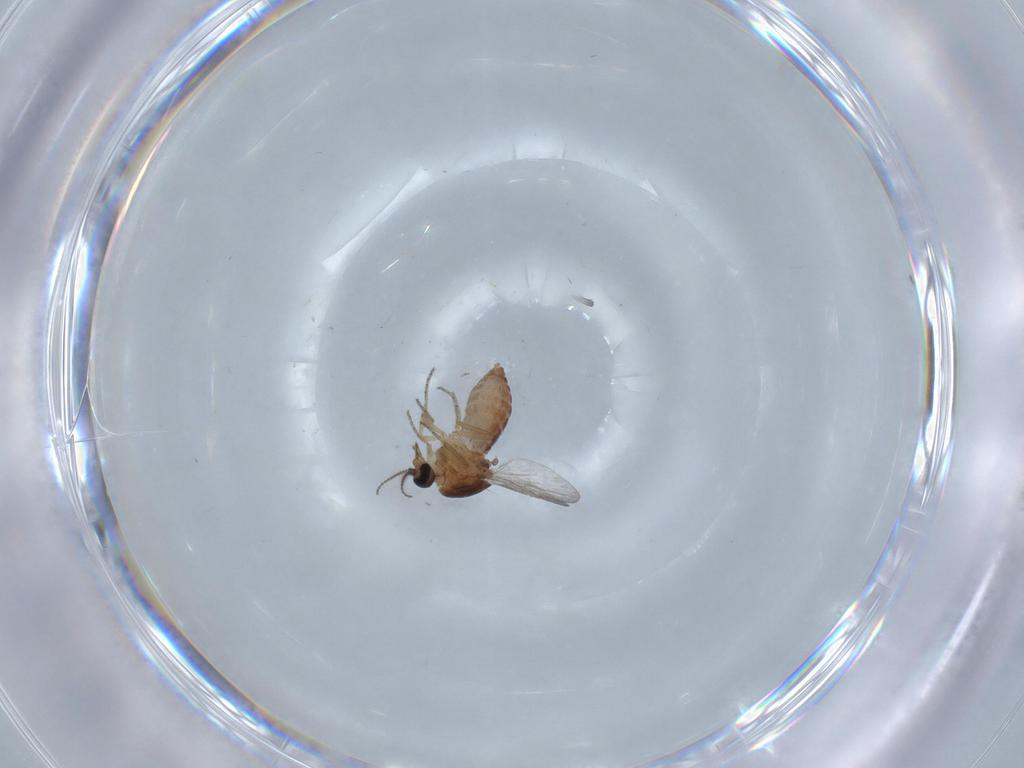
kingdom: Animalia
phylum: Arthropoda
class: Insecta
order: Diptera
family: Ceratopogonidae
